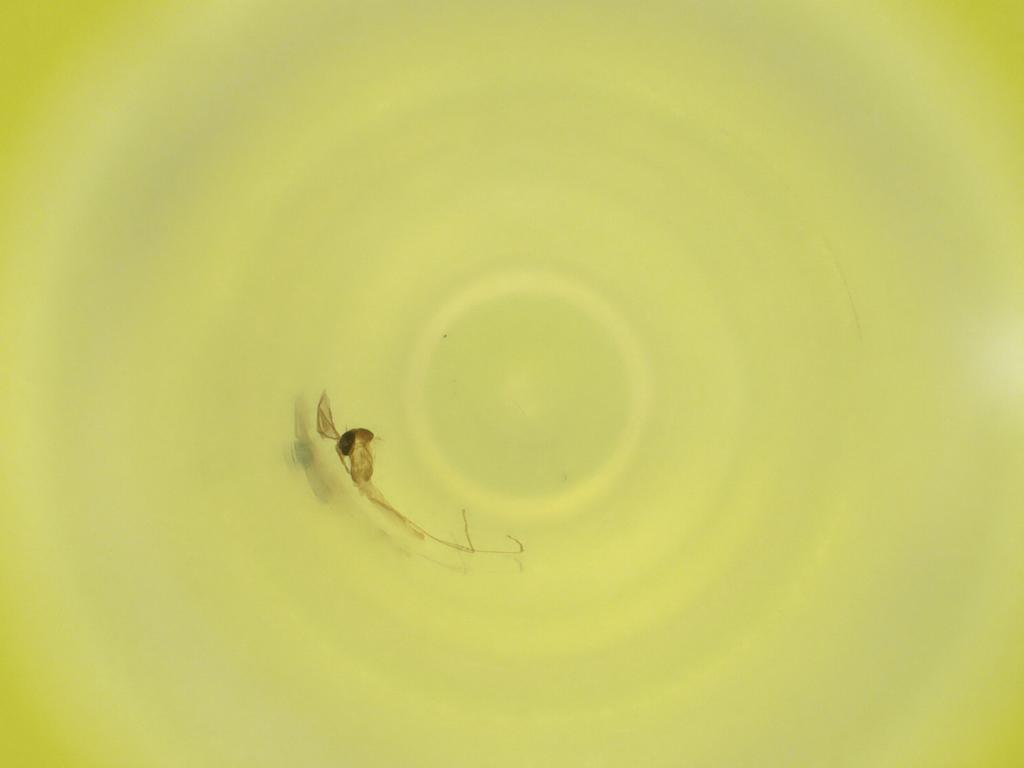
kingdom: Animalia
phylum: Arthropoda
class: Insecta
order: Diptera
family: Cecidomyiidae
